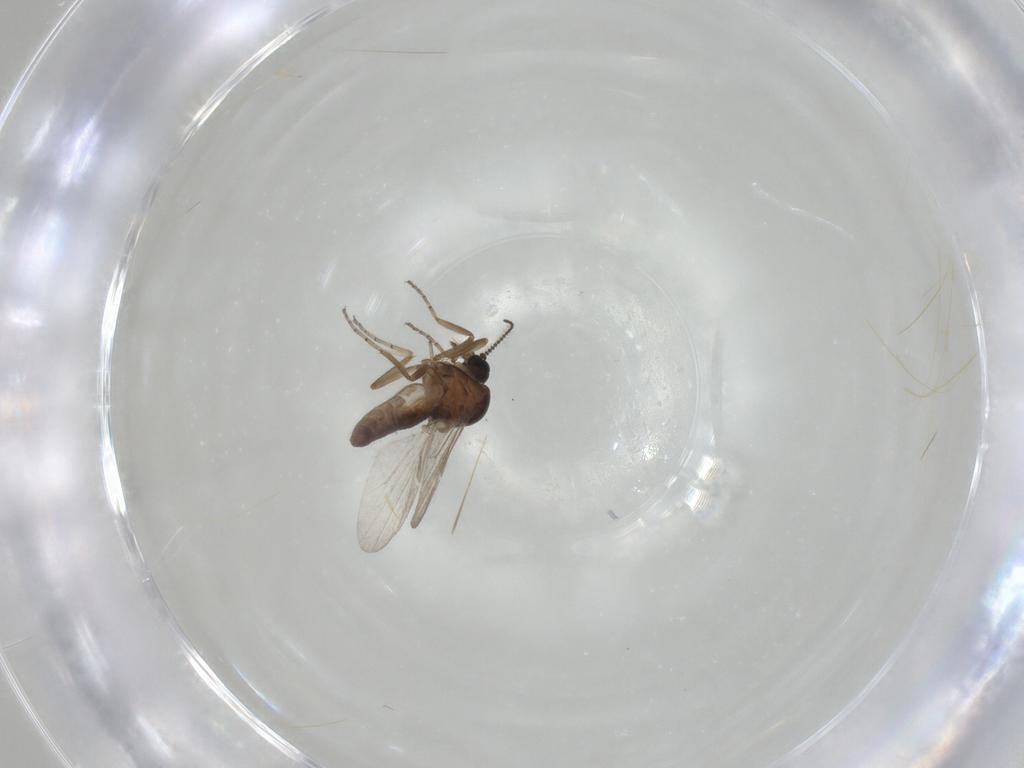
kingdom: Animalia
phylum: Arthropoda
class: Insecta
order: Diptera
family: Ceratopogonidae
